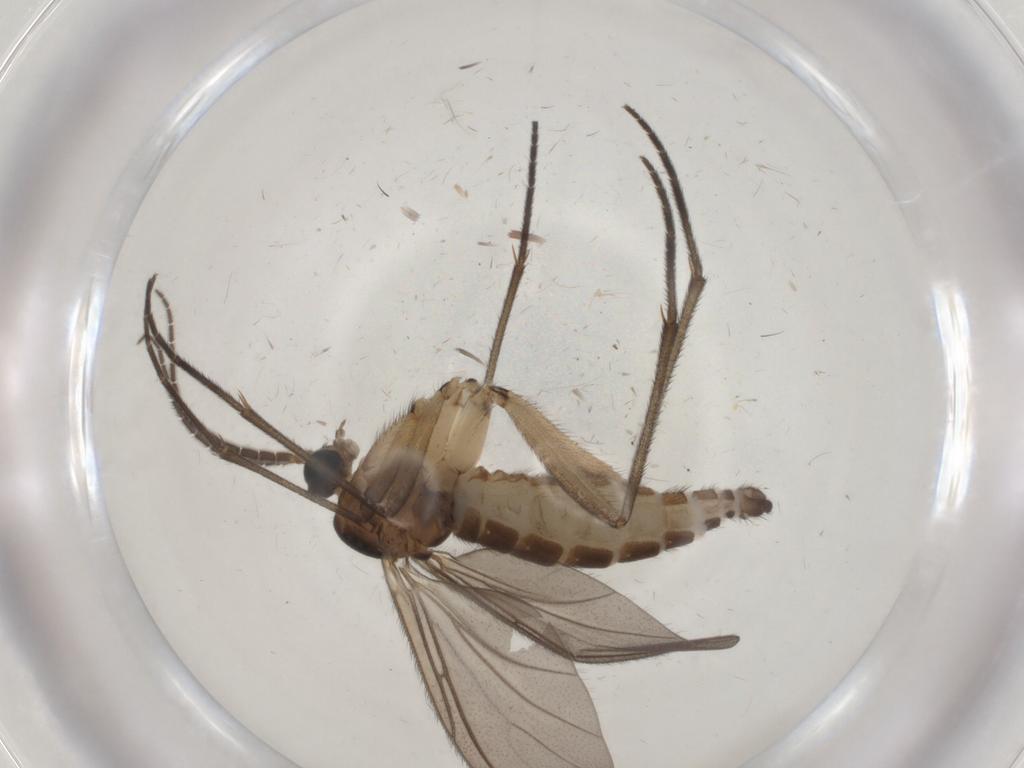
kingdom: Animalia
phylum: Arthropoda
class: Insecta
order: Diptera
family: Sciaridae
